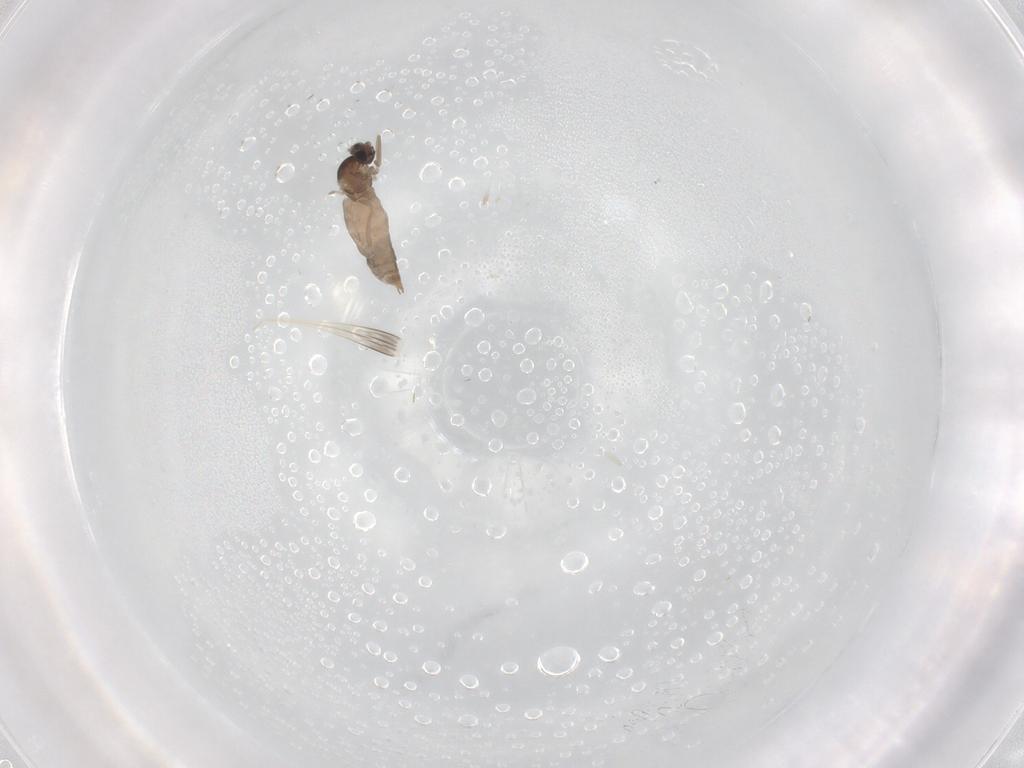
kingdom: Animalia
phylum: Arthropoda
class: Insecta
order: Diptera
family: Cecidomyiidae
